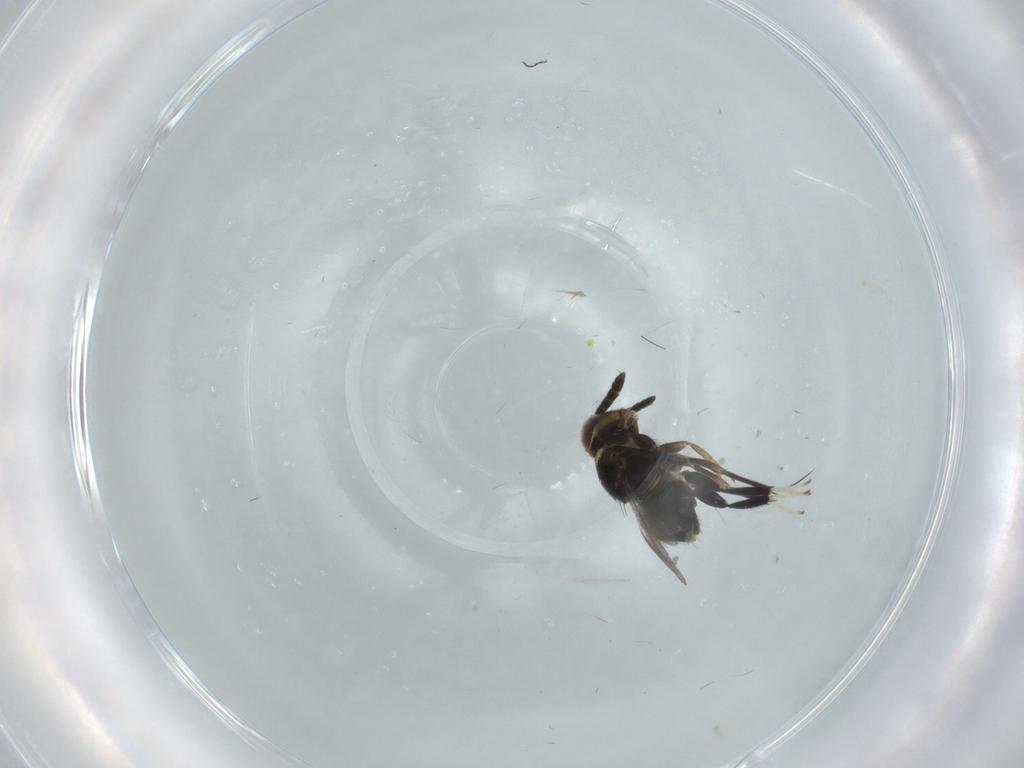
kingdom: Animalia
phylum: Arthropoda
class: Insecta
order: Hymenoptera
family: Aphelinidae
